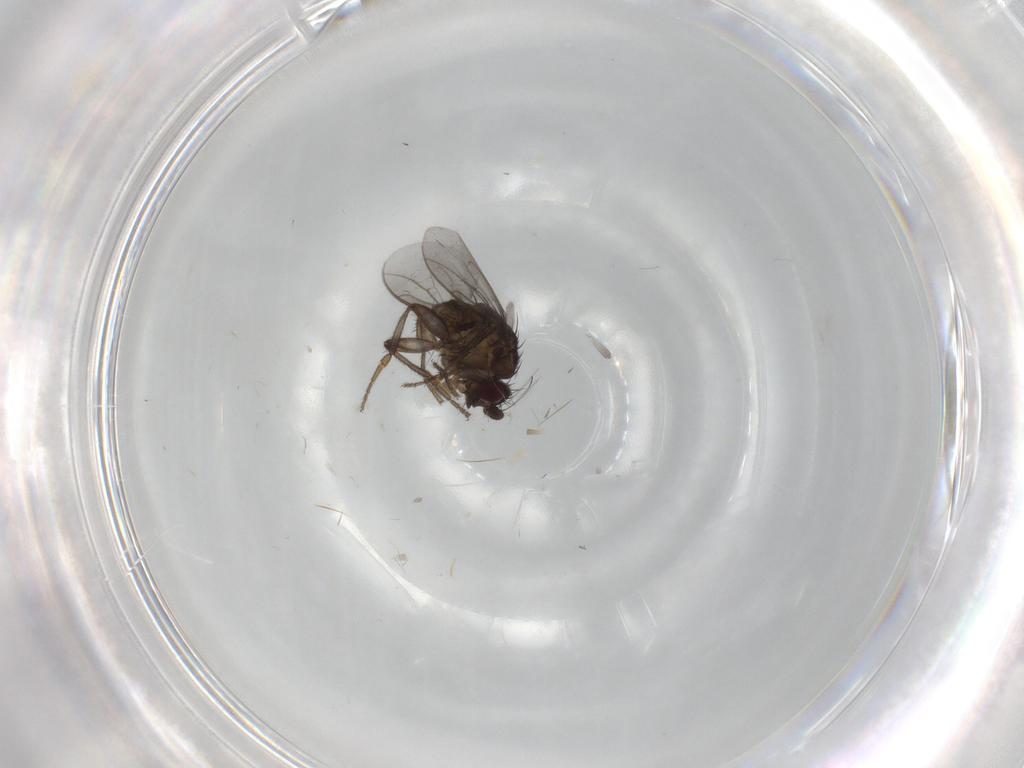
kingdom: Animalia
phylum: Arthropoda
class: Insecta
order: Diptera
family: Sphaeroceridae
